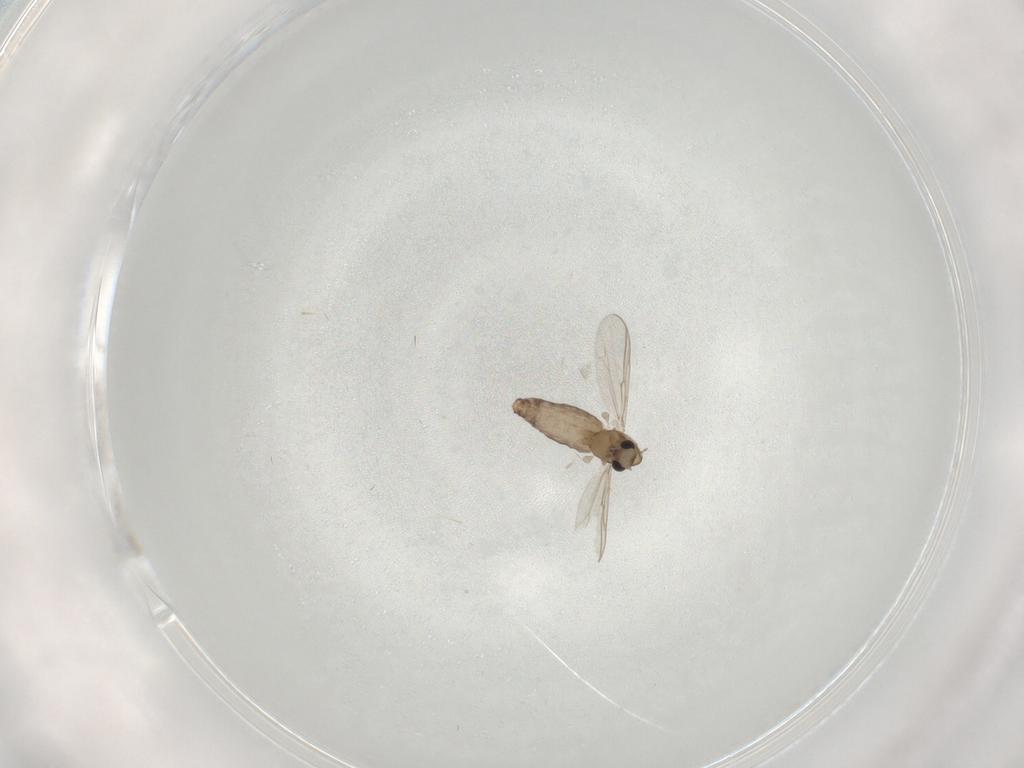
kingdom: Animalia
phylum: Arthropoda
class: Insecta
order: Diptera
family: Chironomidae
